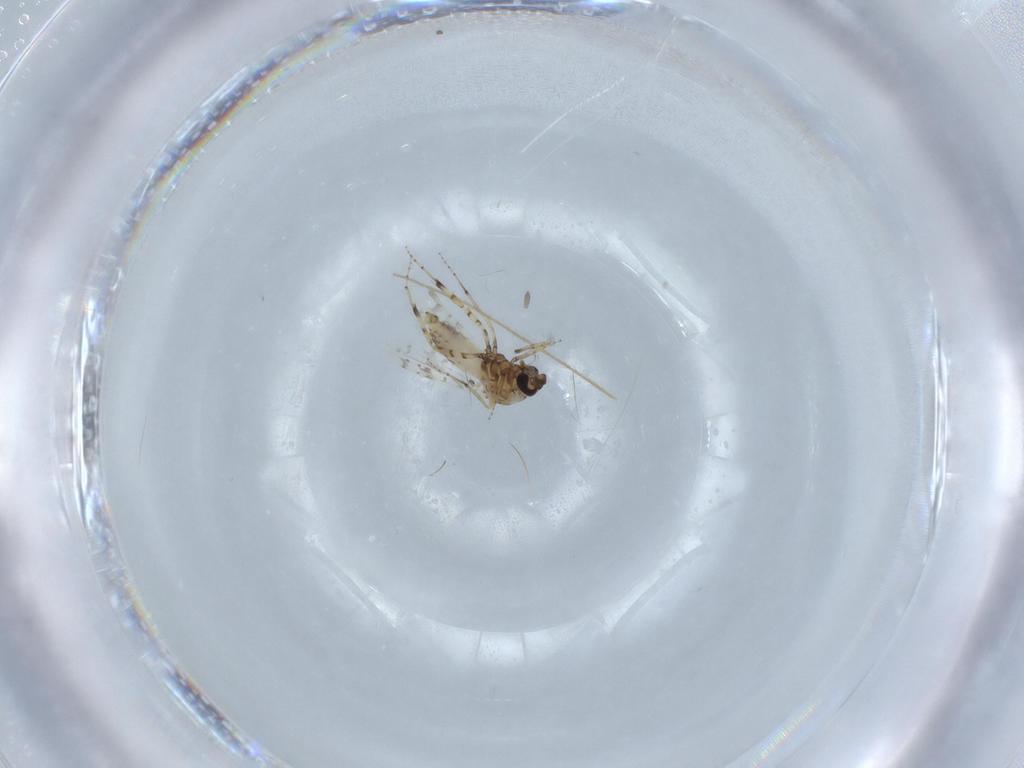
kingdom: Animalia
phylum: Arthropoda
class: Insecta
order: Diptera
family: Ceratopogonidae
